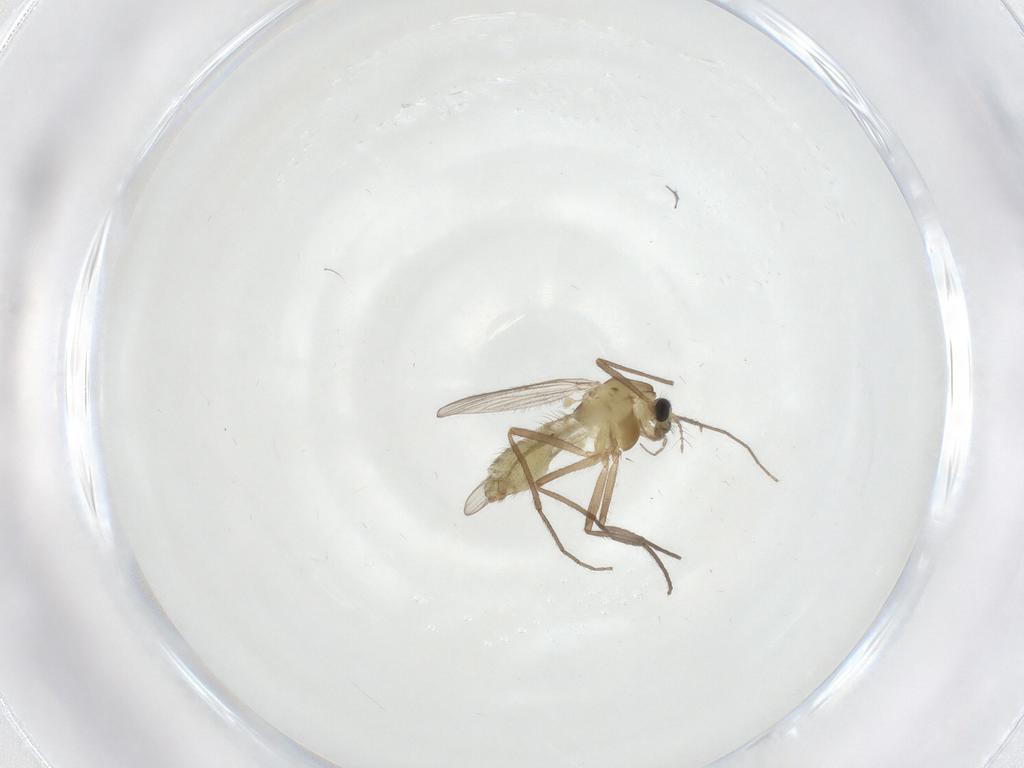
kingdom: Animalia
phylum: Arthropoda
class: Insecta
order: Diptera
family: Chironomidae
